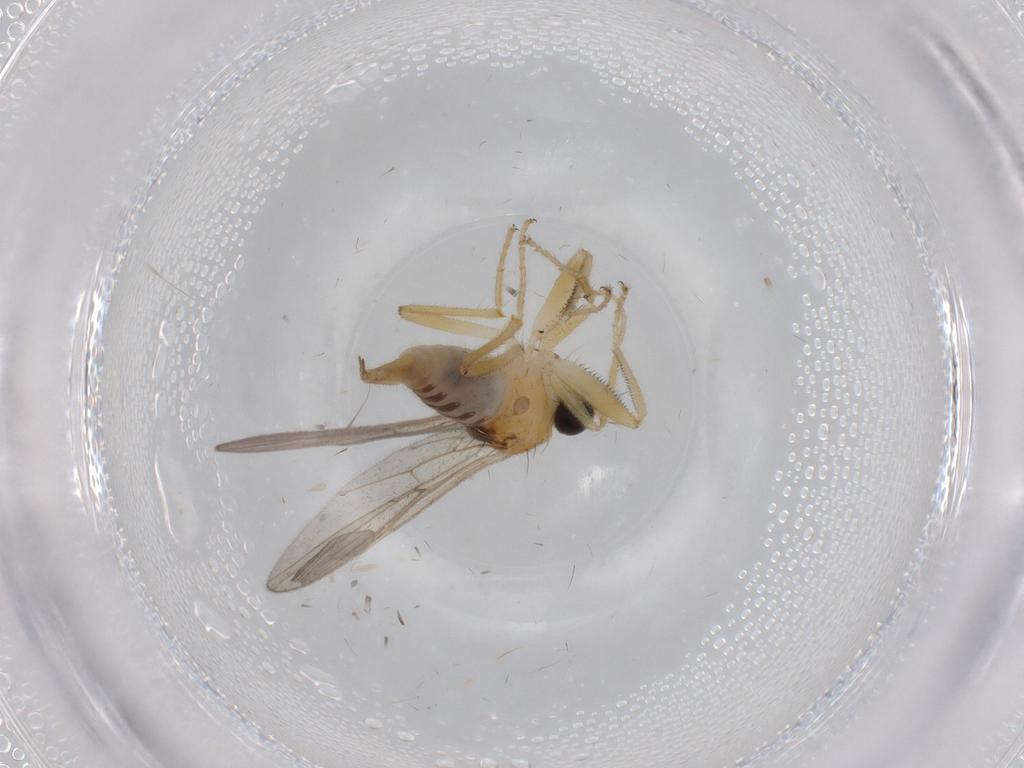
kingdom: Animalia
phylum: Arthropoda
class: Insecta
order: Diptera
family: Hybotidae
